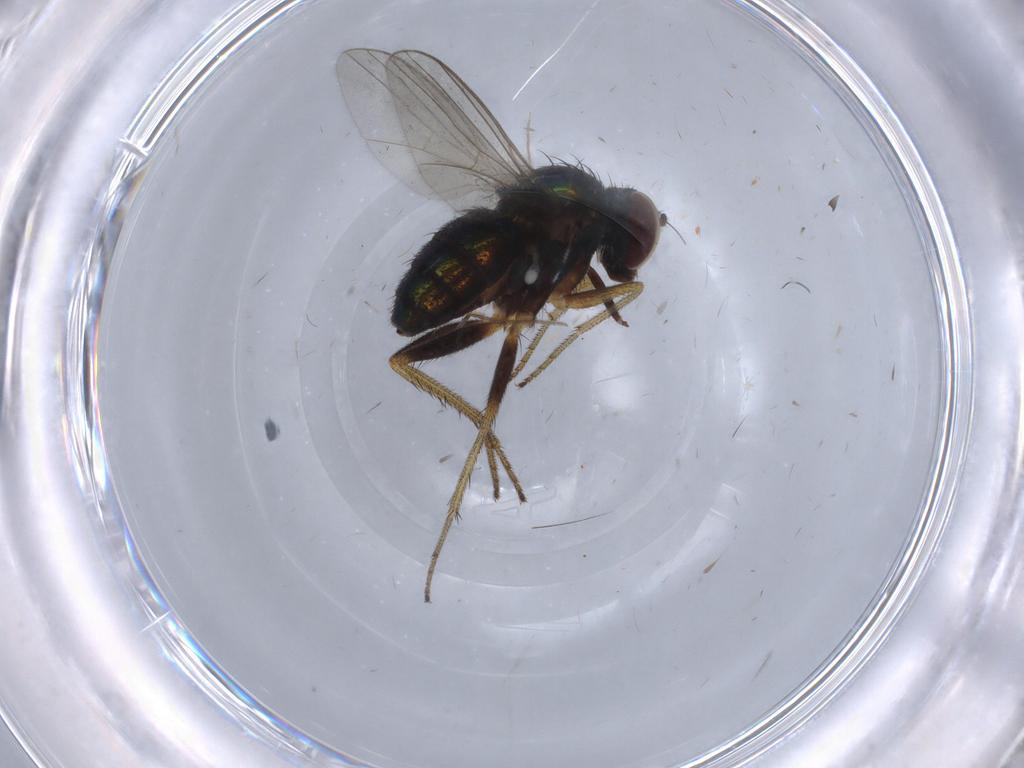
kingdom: Animalia
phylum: Arthropoda
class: Insecta
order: Diptera
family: Dolichopodidae
